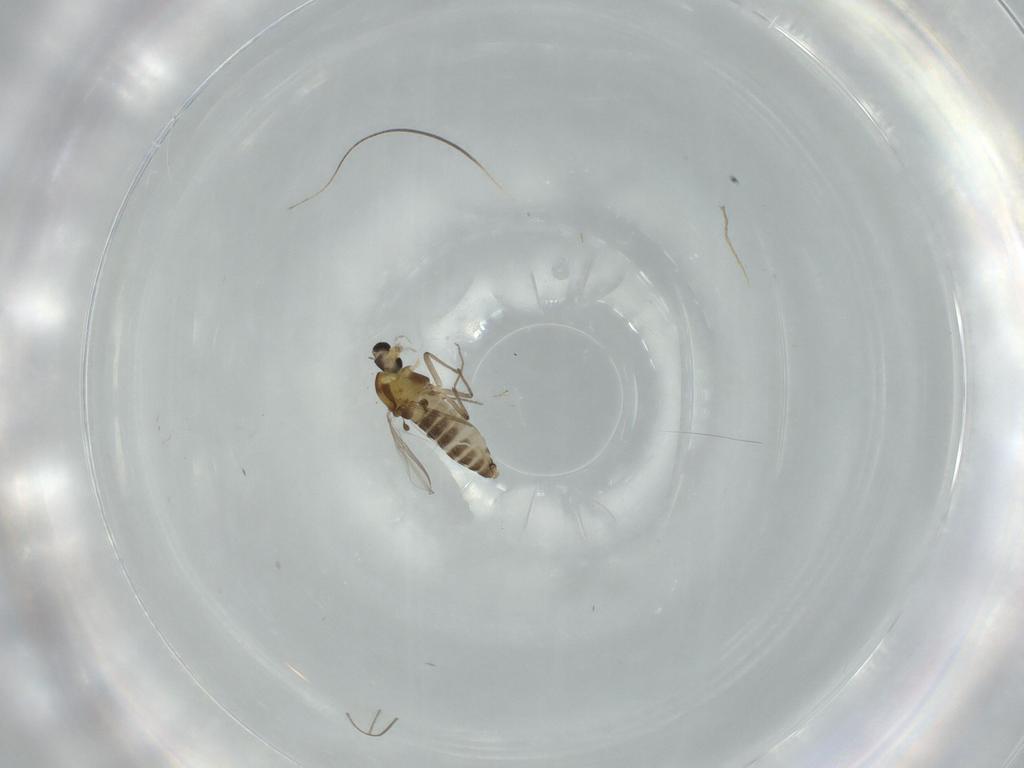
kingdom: Animalia
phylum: Arthropoda
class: Insecta
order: Diptera
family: Chironomidae
